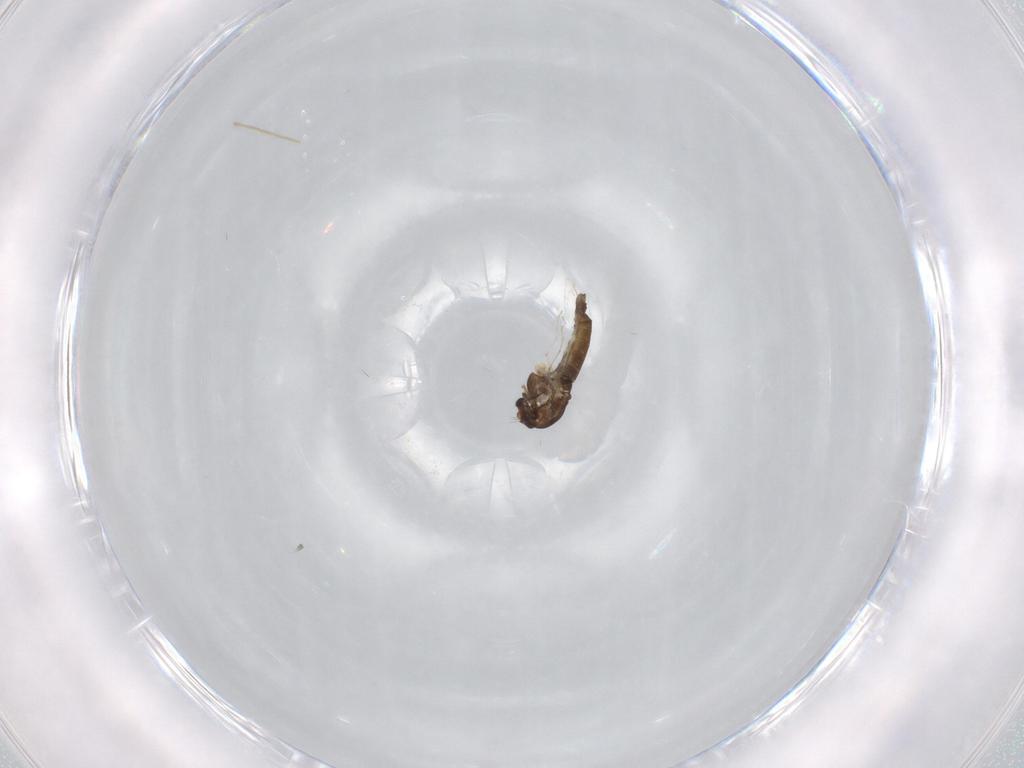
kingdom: Animalia
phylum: Arthropoda
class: Insecta
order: Diptera
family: Chironomidae
